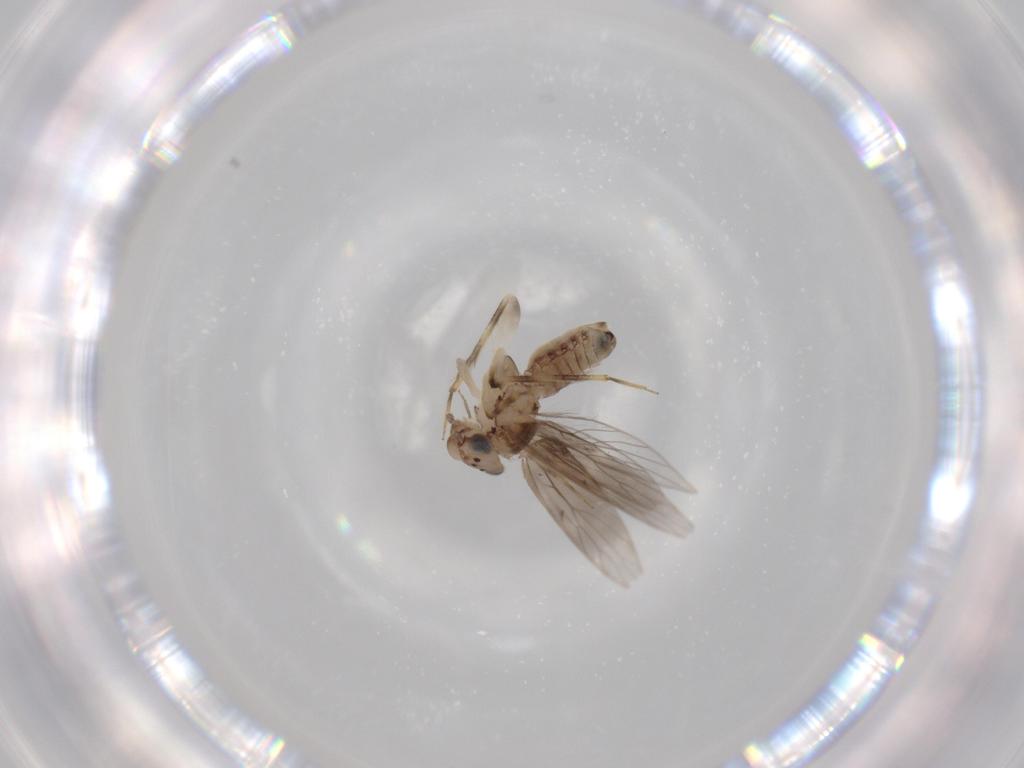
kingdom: Animalia
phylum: Arthropoda
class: Insecta
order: Psocodea
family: Lepidopsocidae
